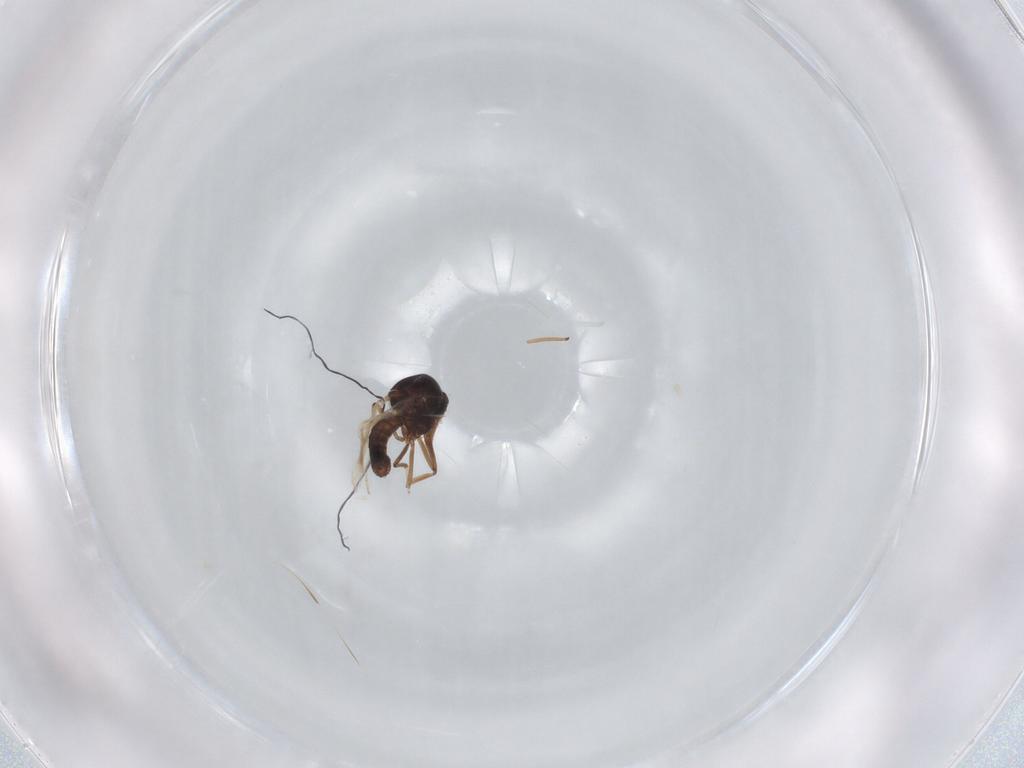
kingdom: Animalia
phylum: Arthropoda
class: Insecta
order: Diptera
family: Ceratopogonidae
